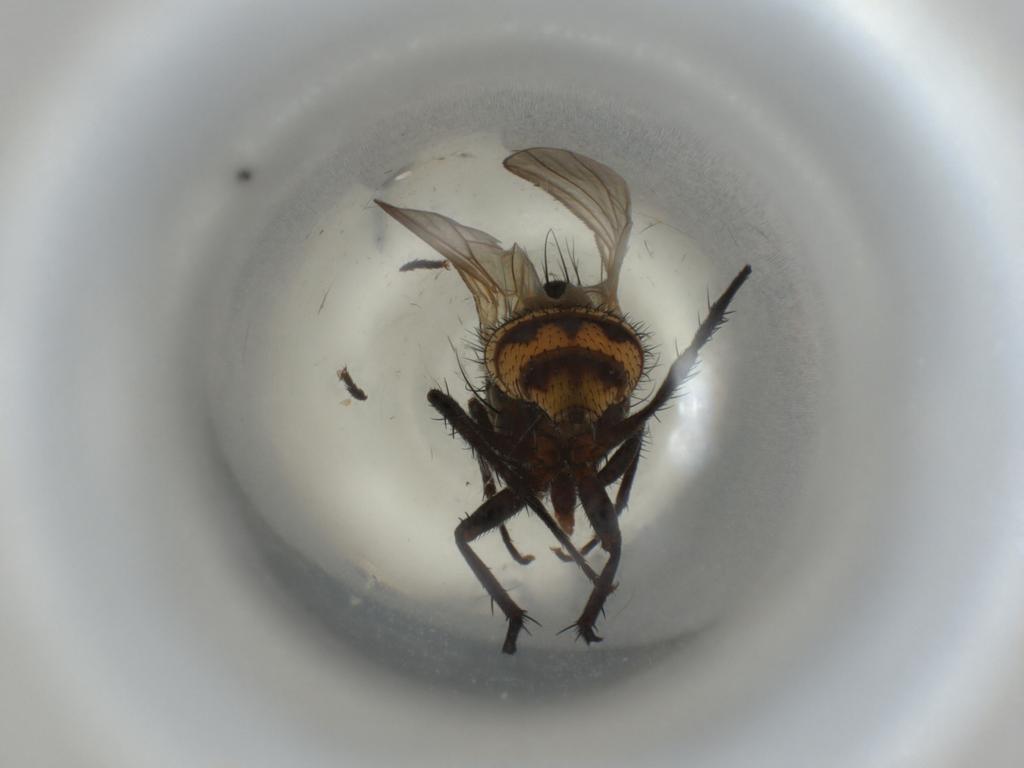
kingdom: Animalia
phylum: Arthropoda
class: Insecta
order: Diptera
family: Anthomyiidae
